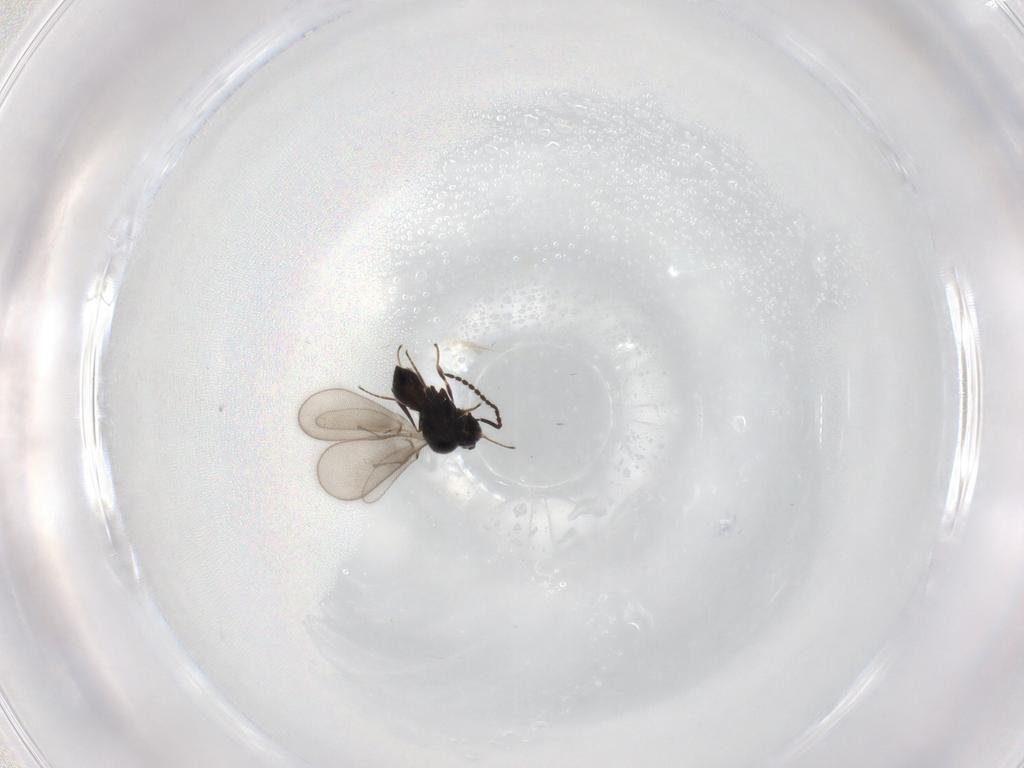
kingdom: Animalia
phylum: Arthropoda
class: Insecta
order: Hymenoptera
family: Scelionidae
